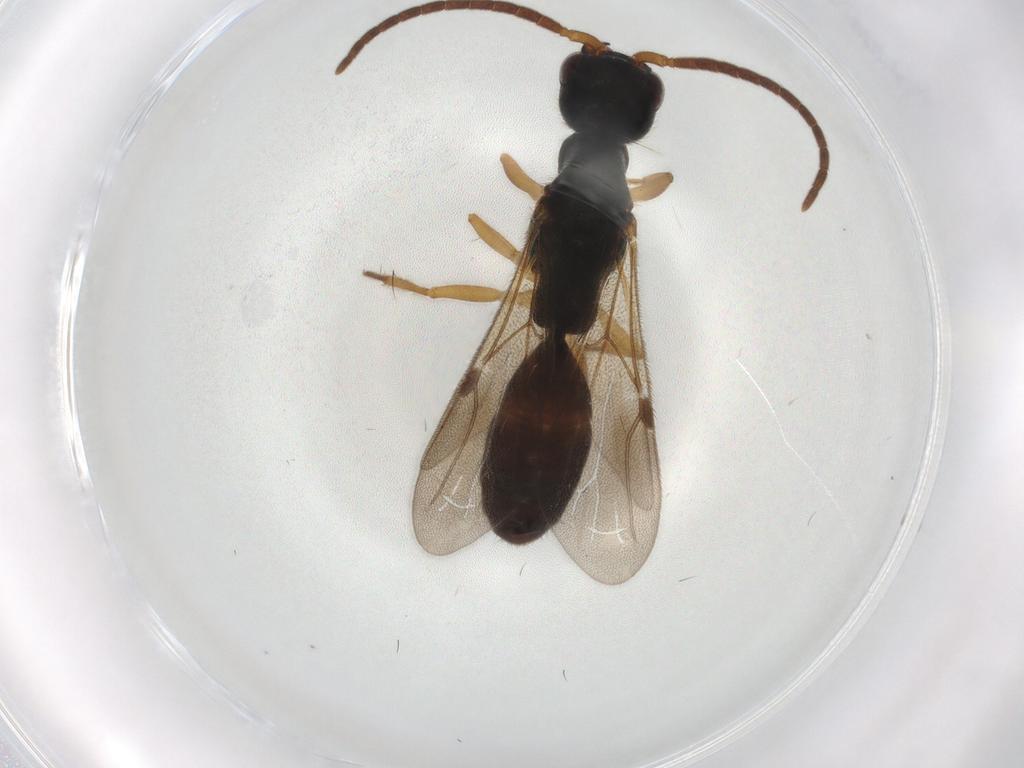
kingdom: Animalia
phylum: Arthropoda
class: Insecta
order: Hymenoptera
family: Bethylidae
